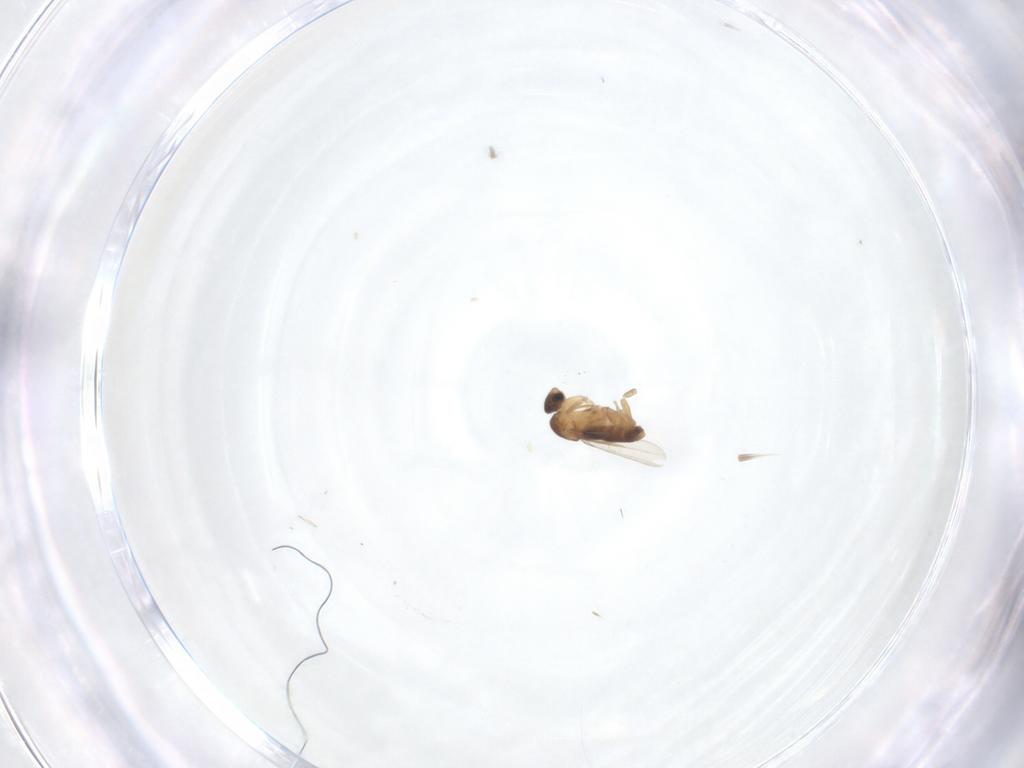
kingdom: Animalia
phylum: Arthropoda
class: Insecta
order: Diptera
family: Phoridae
